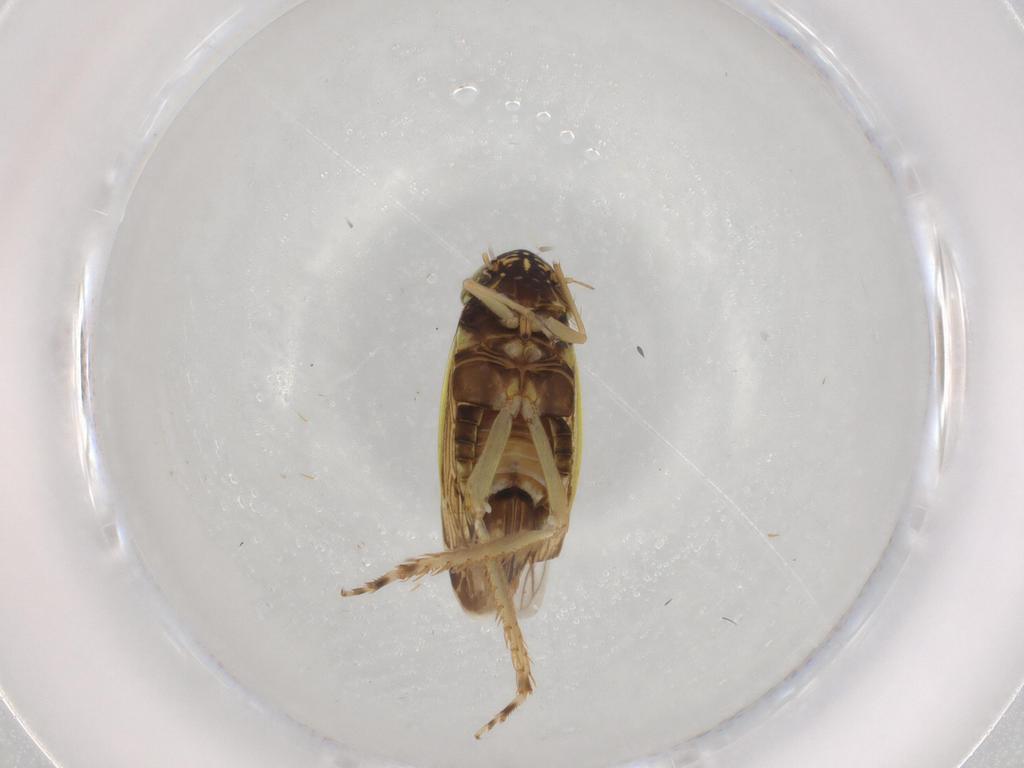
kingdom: Animalia
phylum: Arthropoda
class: Insecta
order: Hemiptera
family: Cicadellidae
